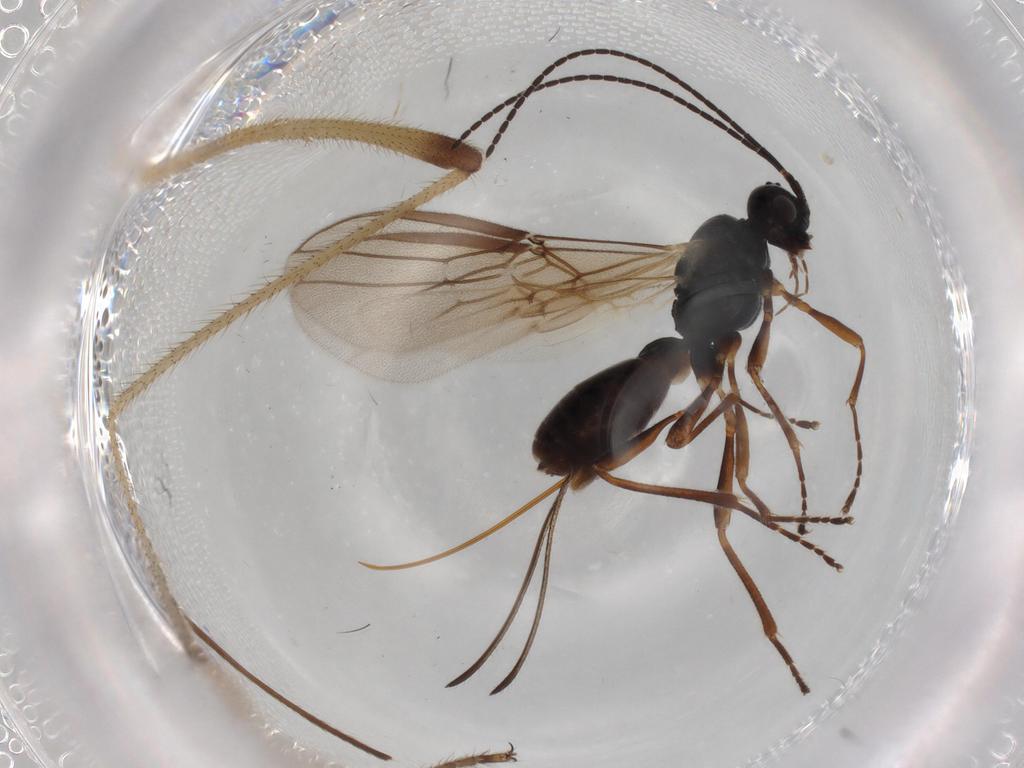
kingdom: Animalia
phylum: Arthropoda
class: Insecta
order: Hymenoptera
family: Braconidae
